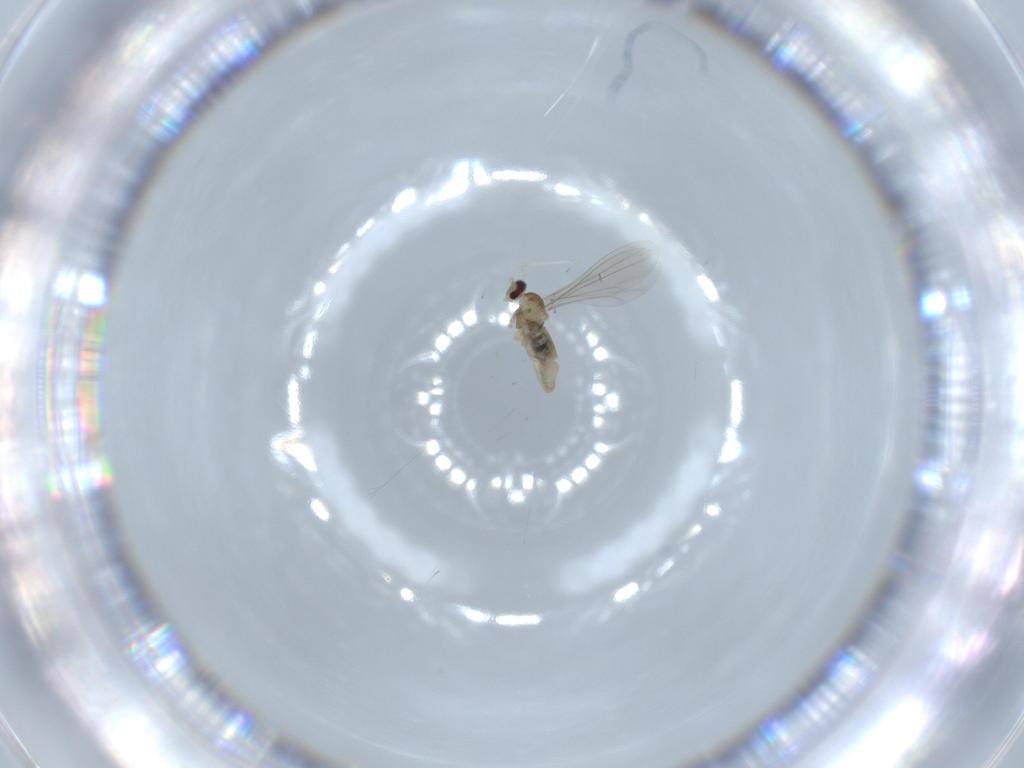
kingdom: Animalia
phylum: Arthropoda
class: Insecta
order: Diptera
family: Cecidomyiidae
